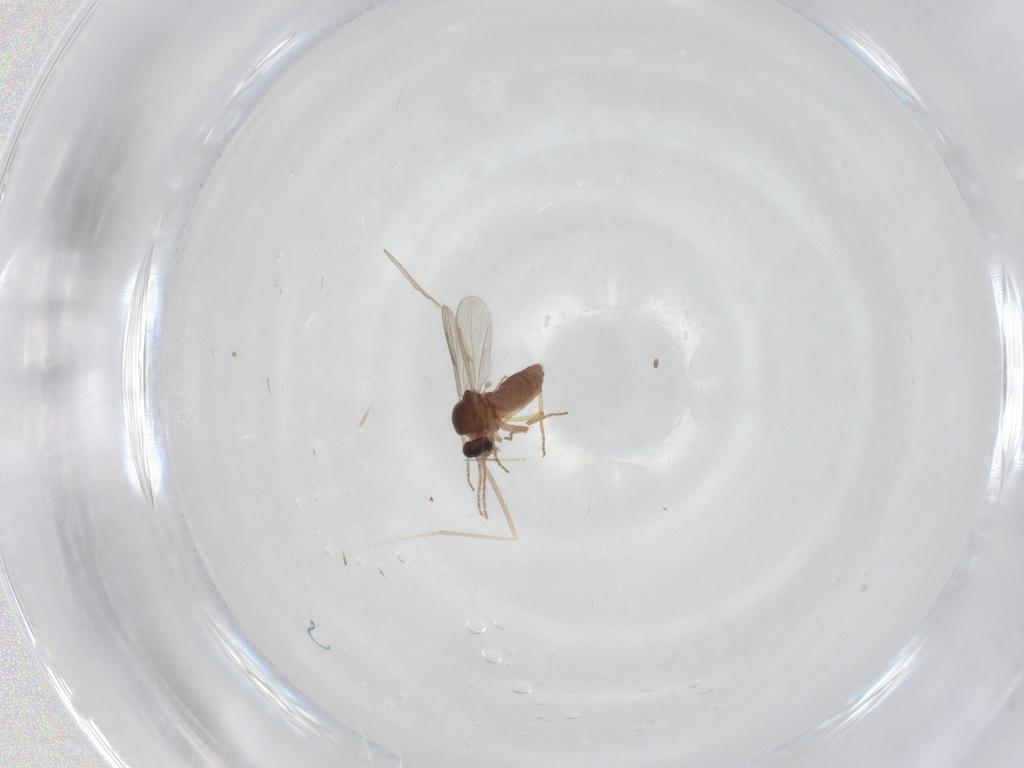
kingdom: Animalia
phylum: Arthropoda
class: Insecta
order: Diptera
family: Ceratopogonidae
